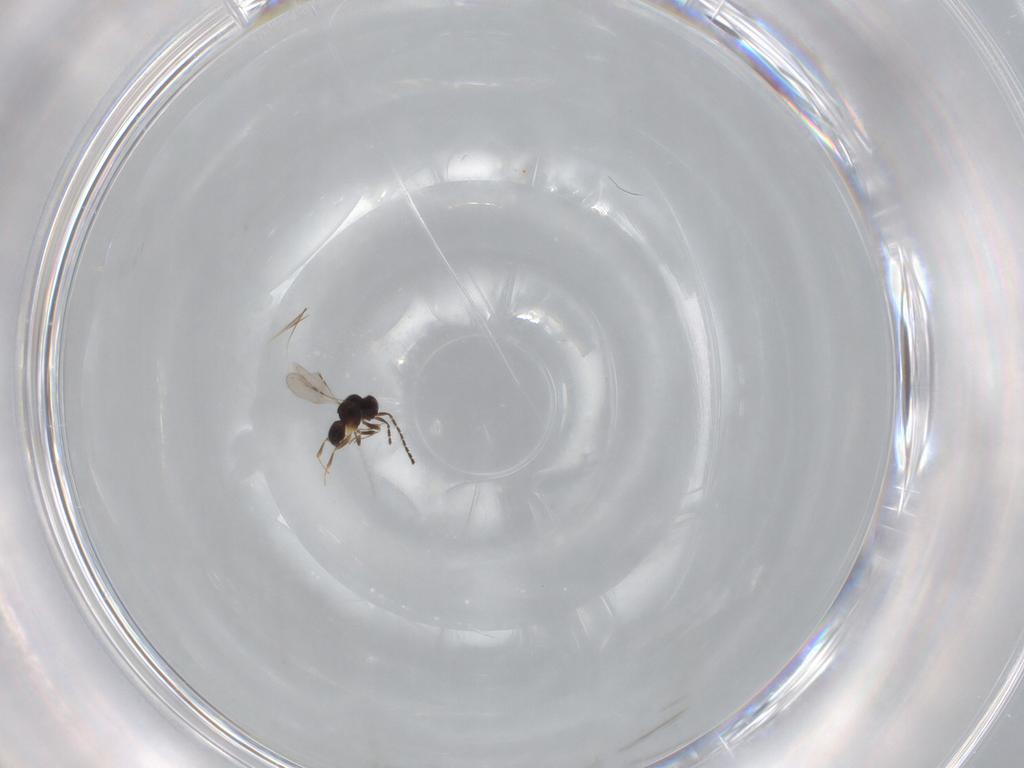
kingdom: Animalia
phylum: Arthropoda
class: Insecta
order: Hymenoptera
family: Ceraphronidae
